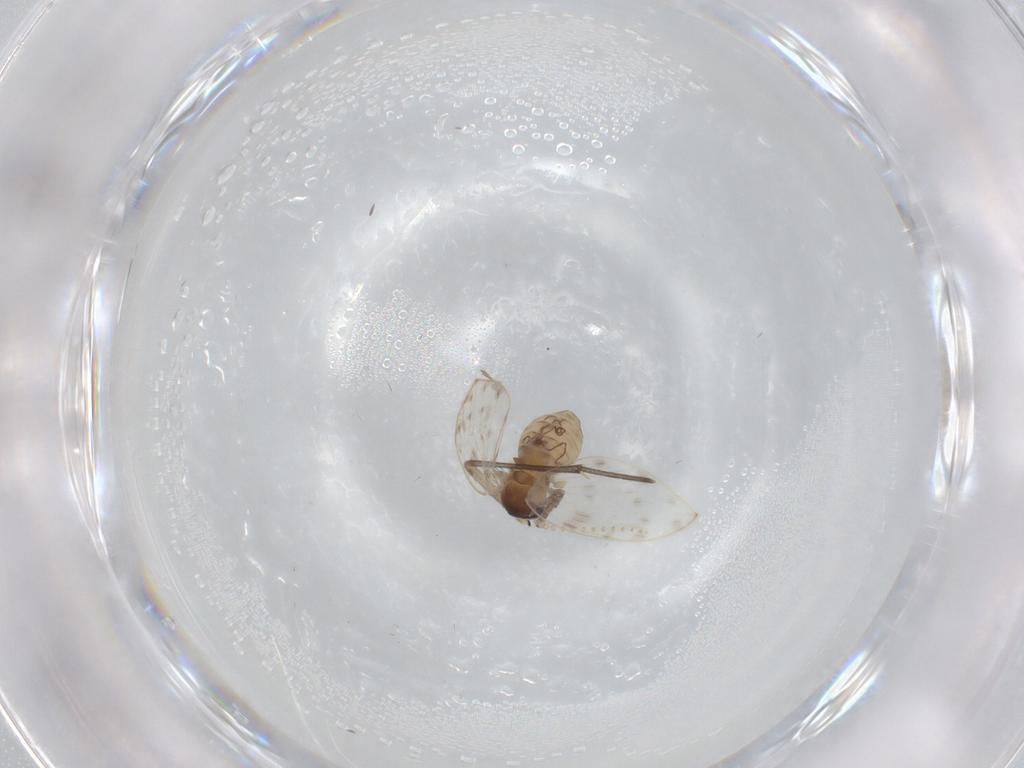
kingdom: Animalia
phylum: Arthropoda
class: Insecta
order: Diptera
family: Psychodidae
